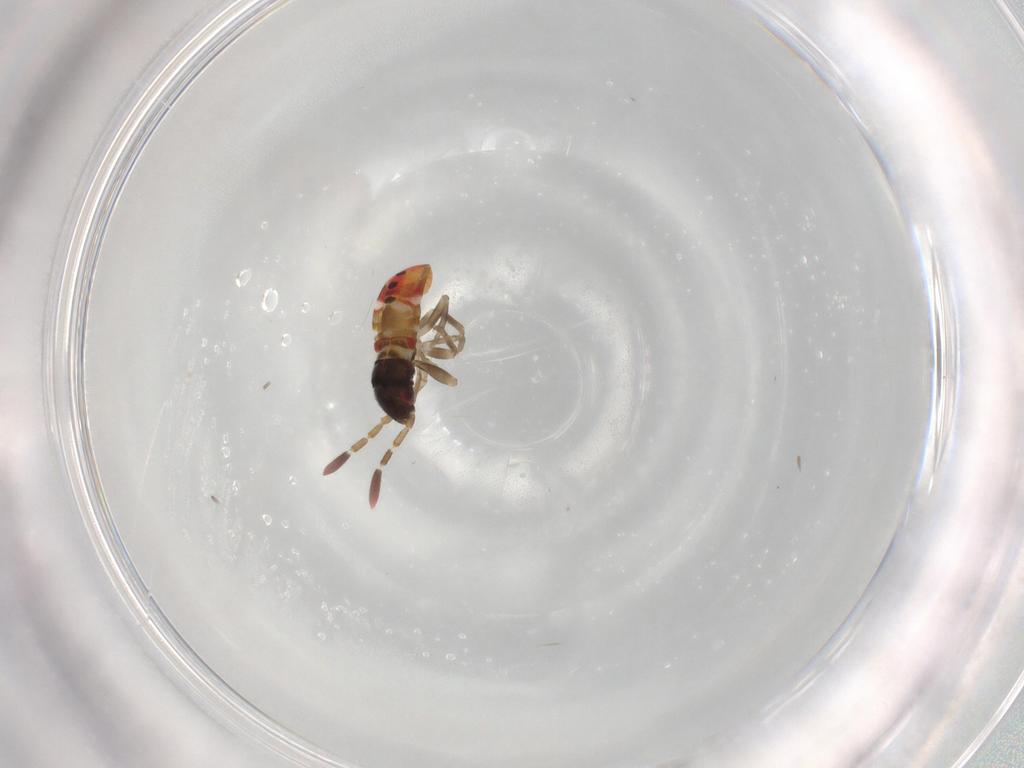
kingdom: Animalia
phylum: Arthropoda
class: Insecta
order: Hemiptera
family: Rhyparochromidae
